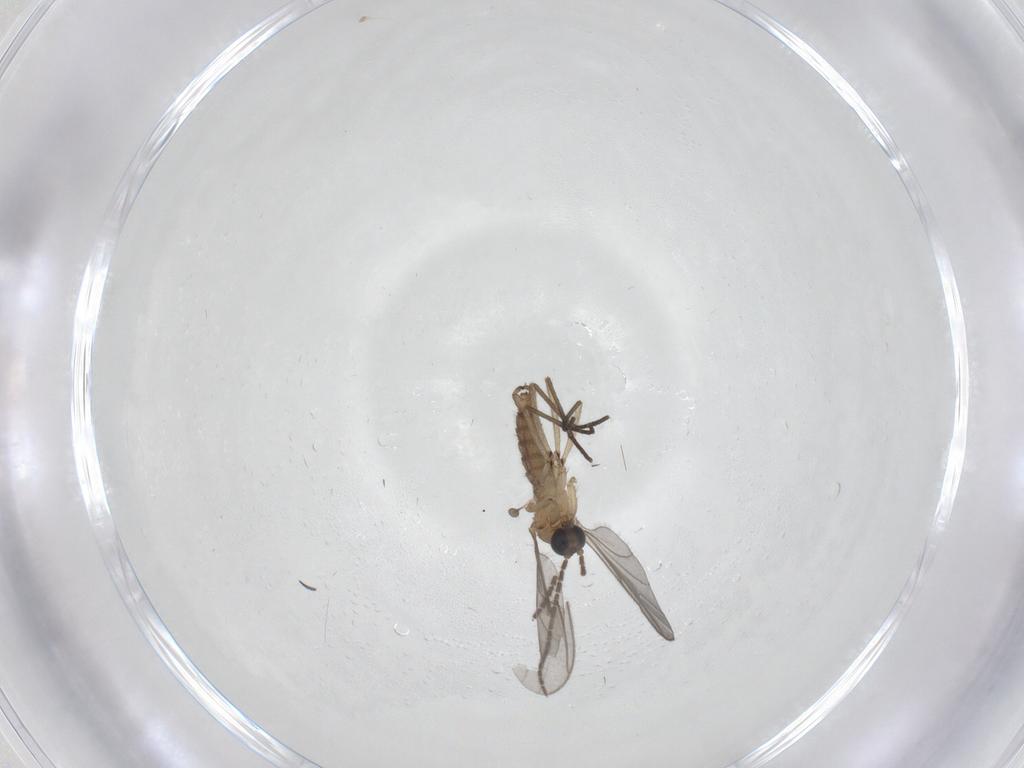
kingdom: Animalia
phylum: Arthropoda
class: Insecta
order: Diptera
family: Sciaridae
